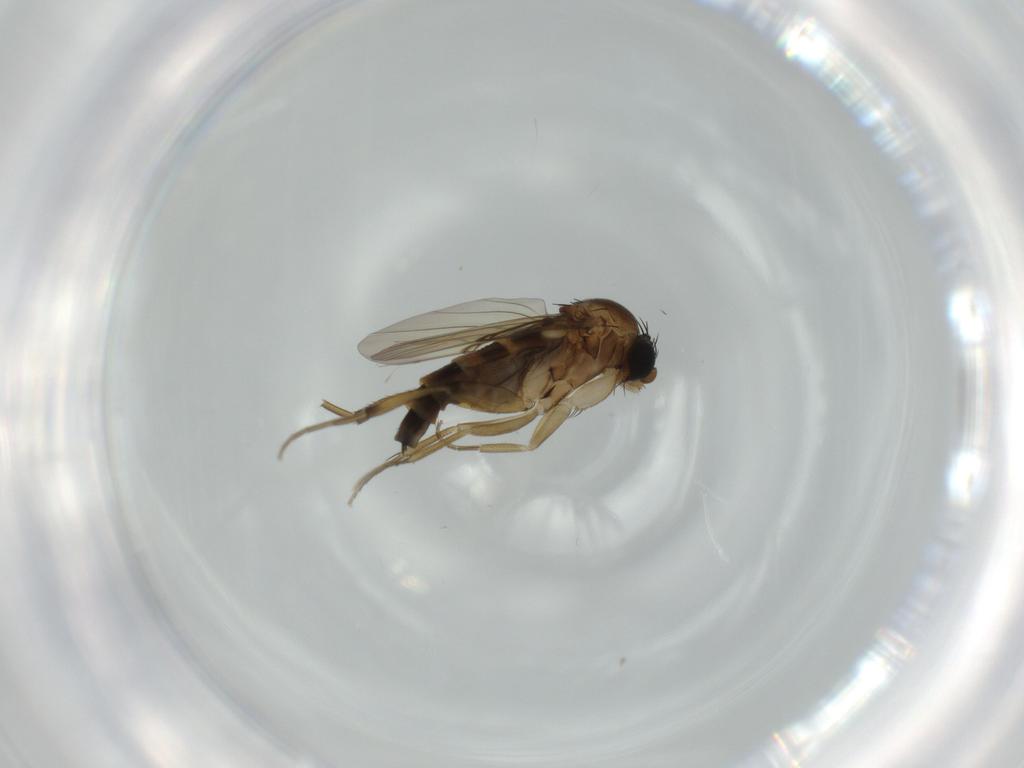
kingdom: Animalia
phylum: Arthropoda
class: Insecta
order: Diptera
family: Phoridae
